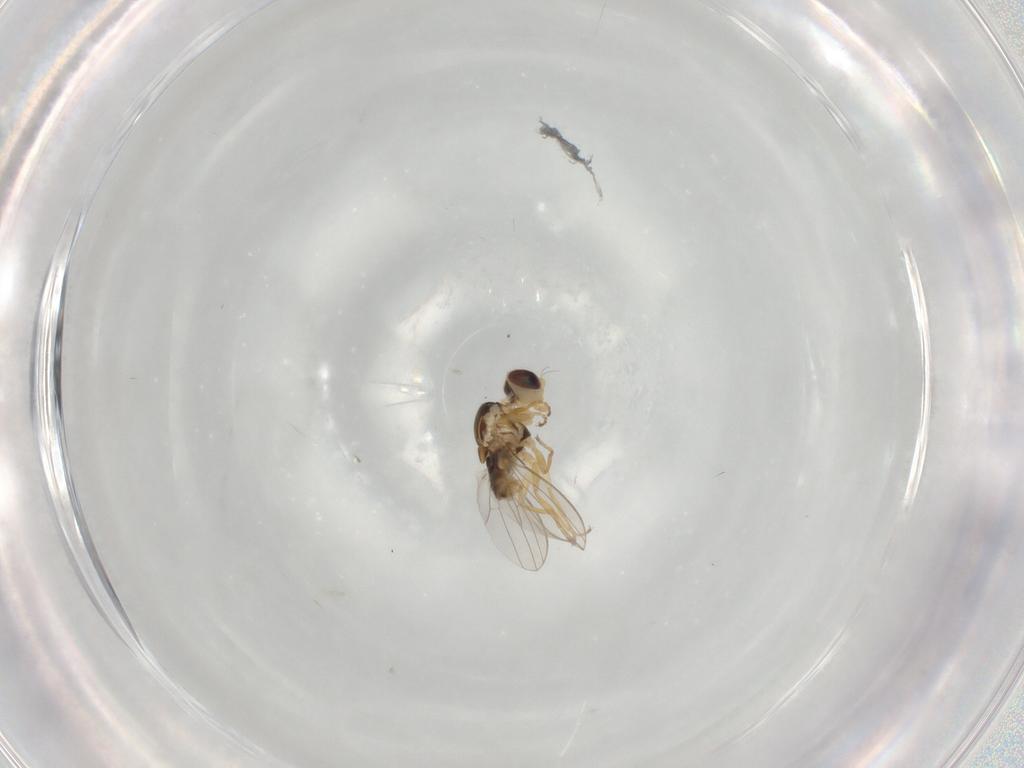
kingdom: Animalia
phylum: Arthropoda
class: Insecta
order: Diptera
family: Chyromyidae
